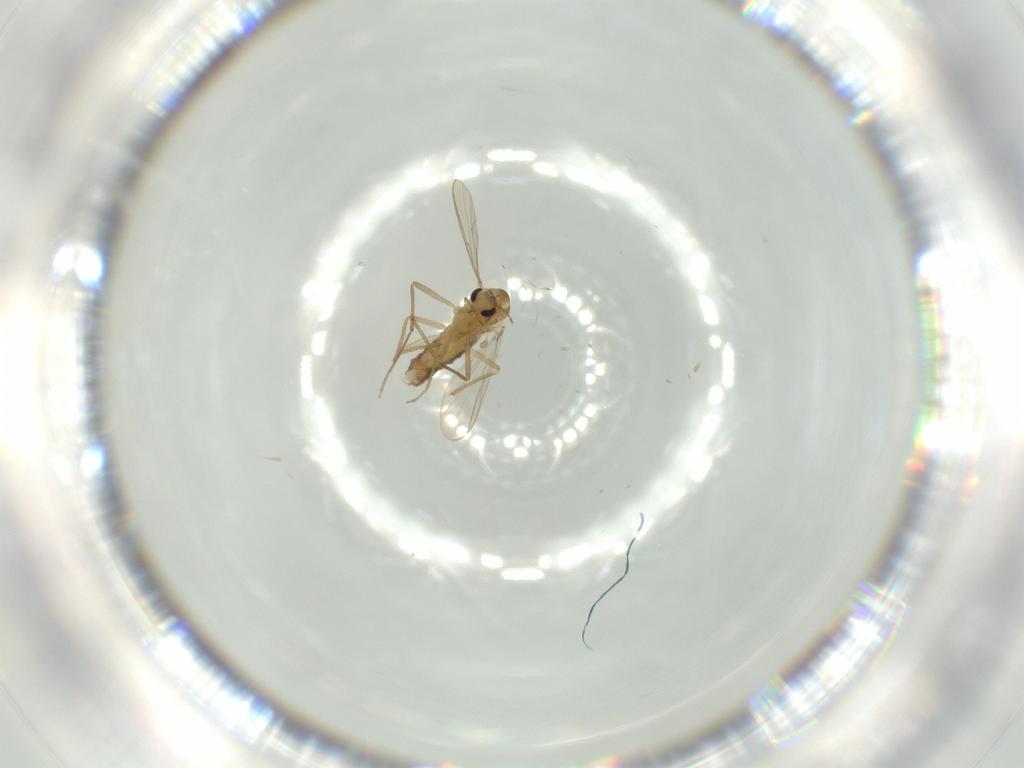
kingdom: Animalia
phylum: Arthropoda
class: Insecta
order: Diptera
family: Chironomidae
